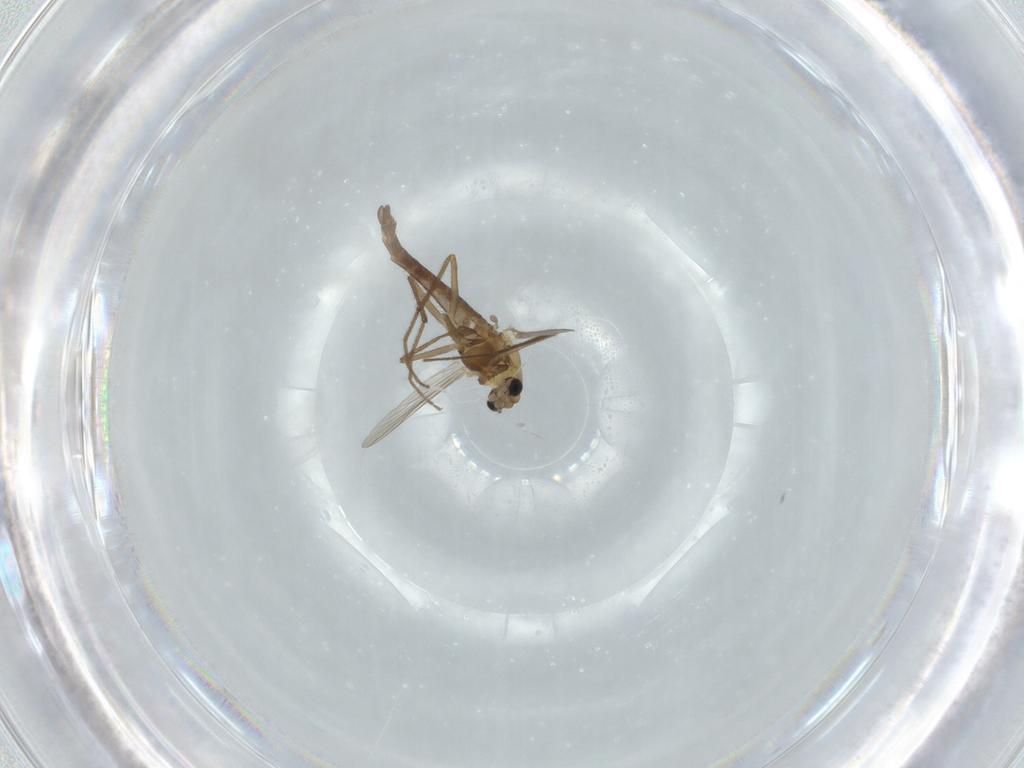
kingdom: Animalia
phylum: Arthropoda
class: Insecta
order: Diptera
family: Chironomidae
